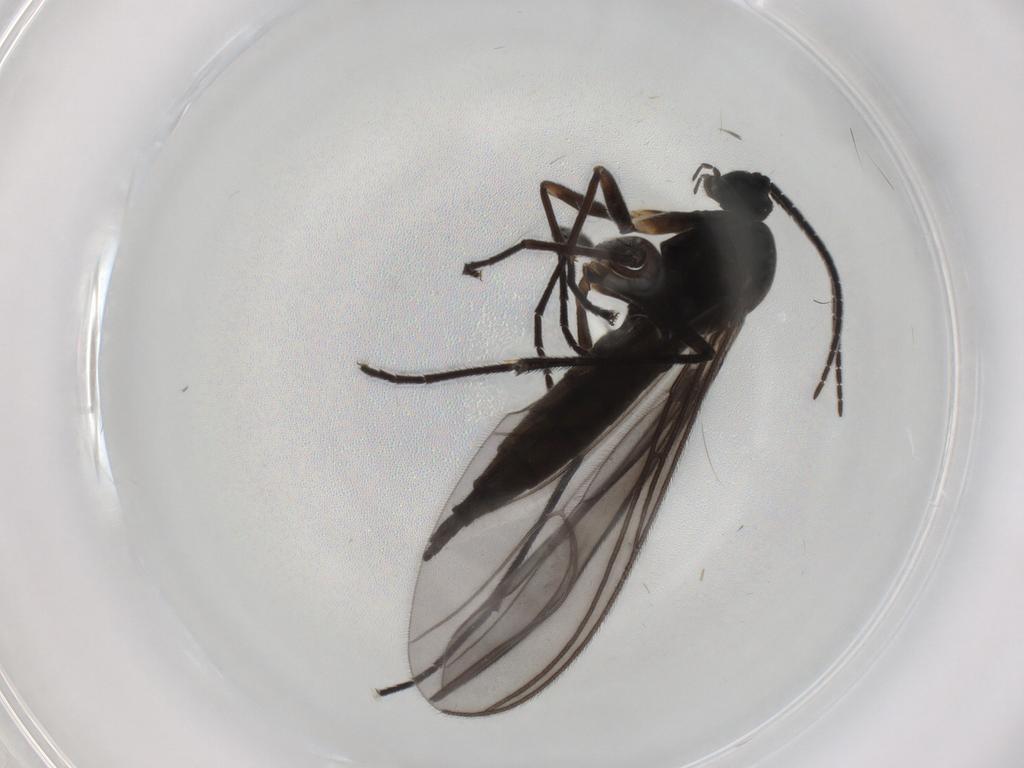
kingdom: Animalia
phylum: Arthropoda
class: Insecta
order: Diptera
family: Sciaridae
